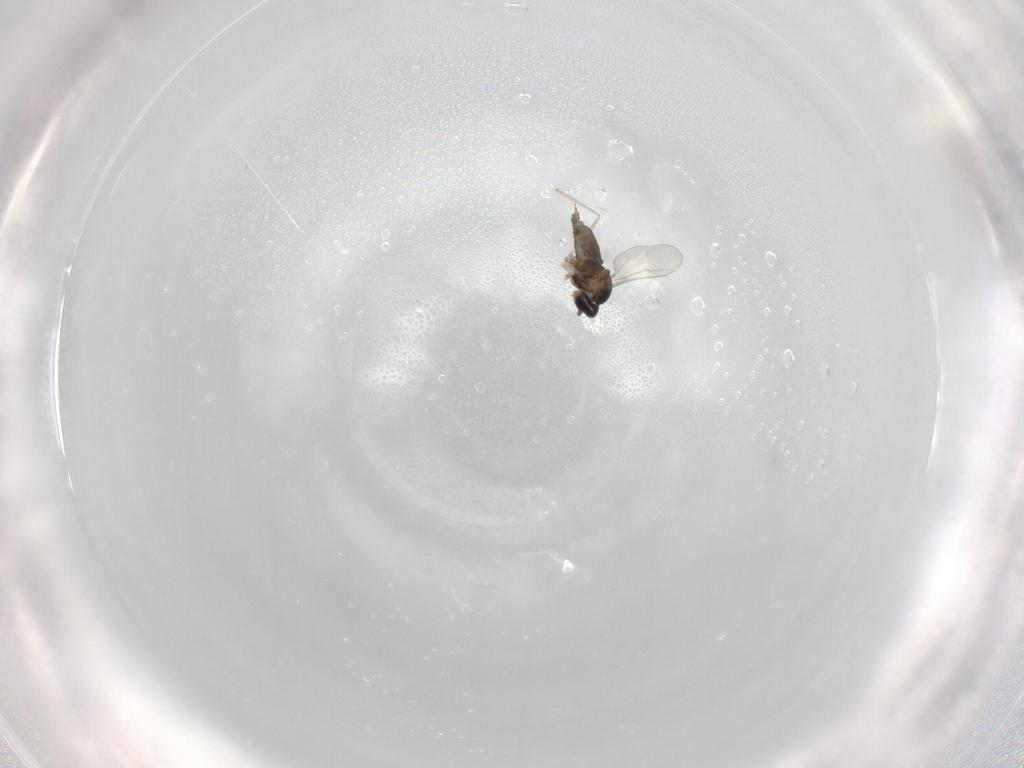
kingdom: Animalia
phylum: Arthropoda
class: Insecta
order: Diptera
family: Cecidomyiidae
